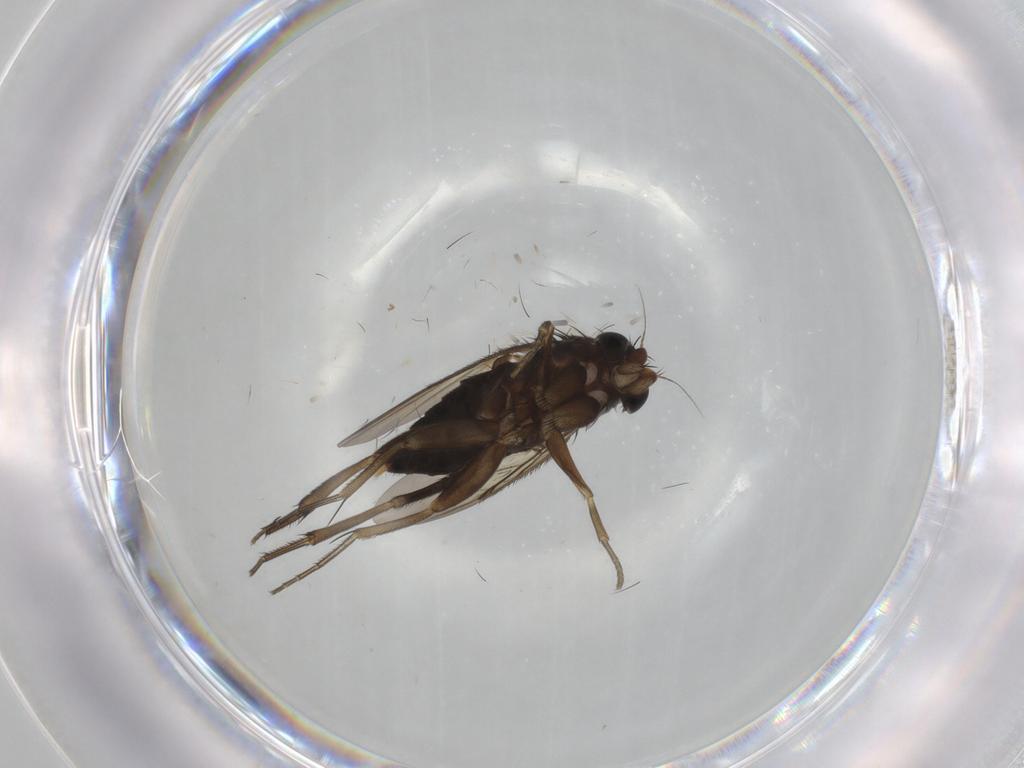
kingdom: Animalia
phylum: Arthropoda
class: Insecta
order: Diptera
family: Phoridae
